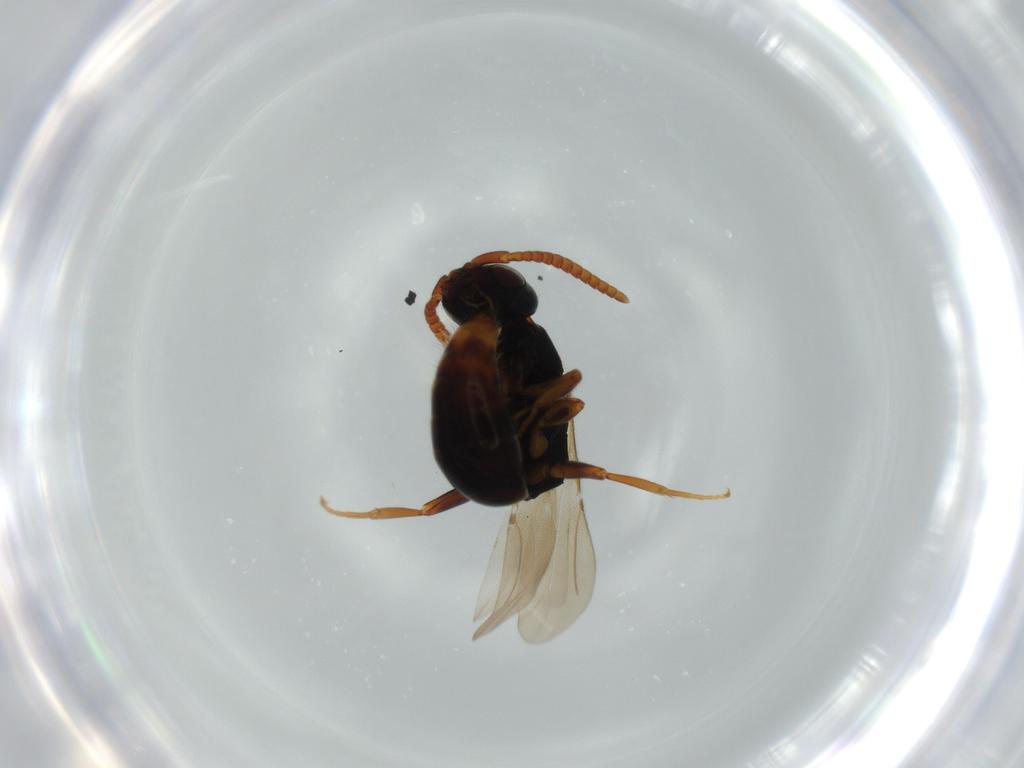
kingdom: Animalia
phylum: Arthropoda
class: Insecta
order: Hymenoptera
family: Bethylidae
